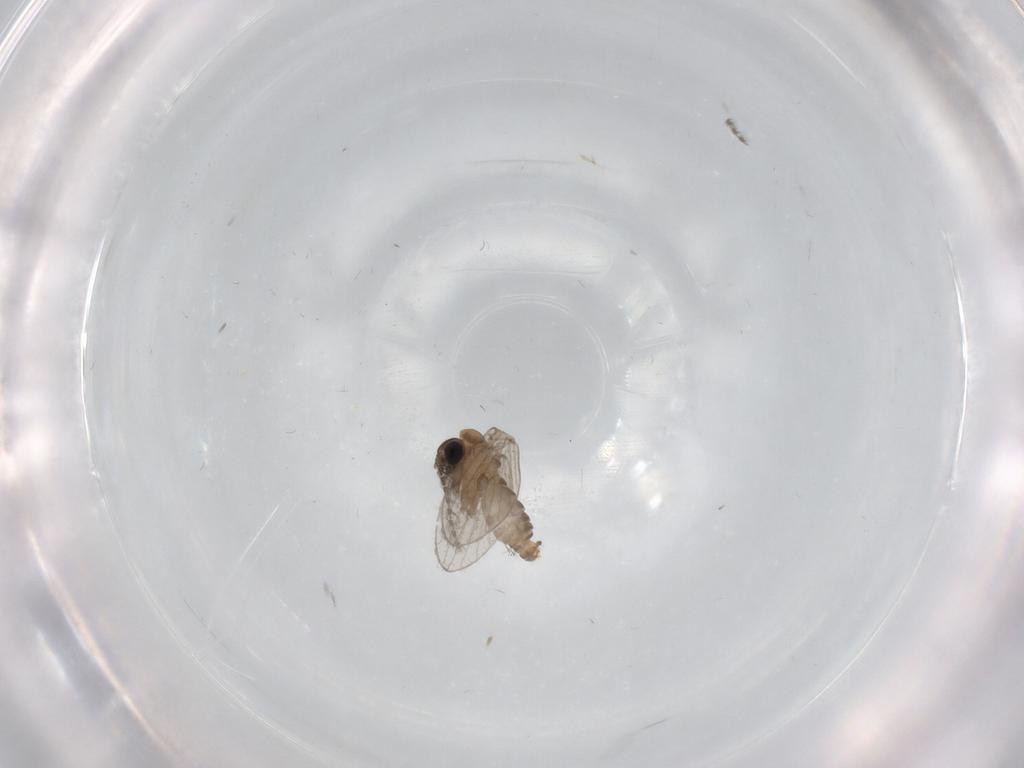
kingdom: Animalia
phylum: Arthropoda
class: Insecta
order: Diptera
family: Psychodidae
